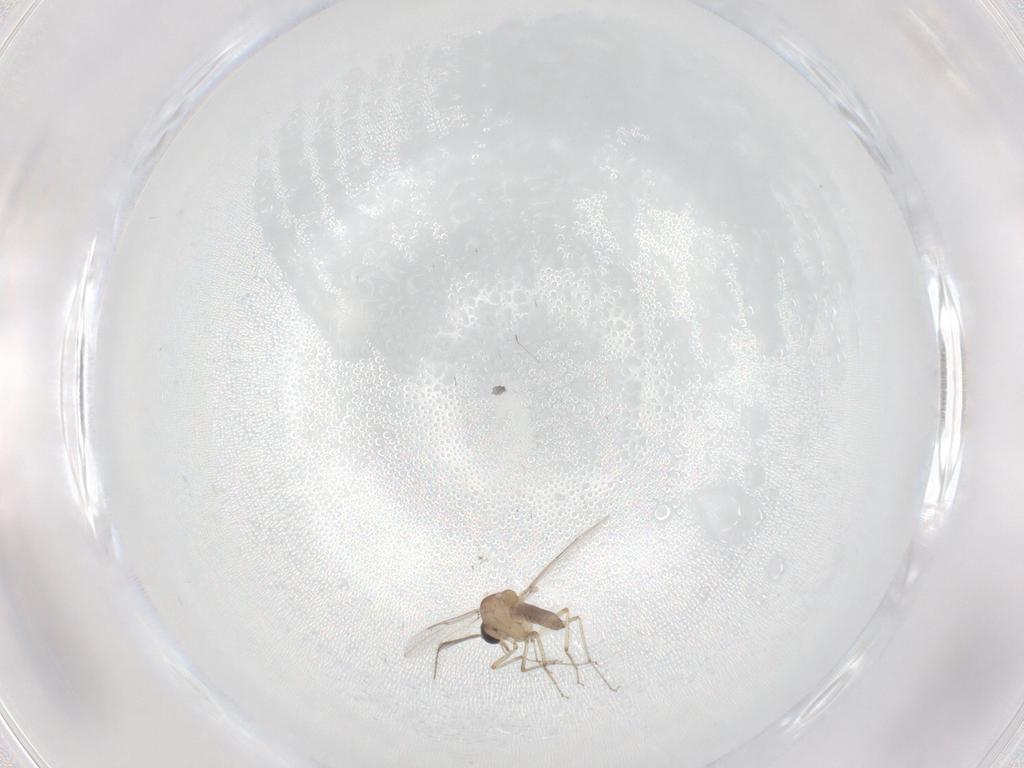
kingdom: Animalia
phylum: Arthropoda
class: Insecta
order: Diptera
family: Ceratopogonidae
